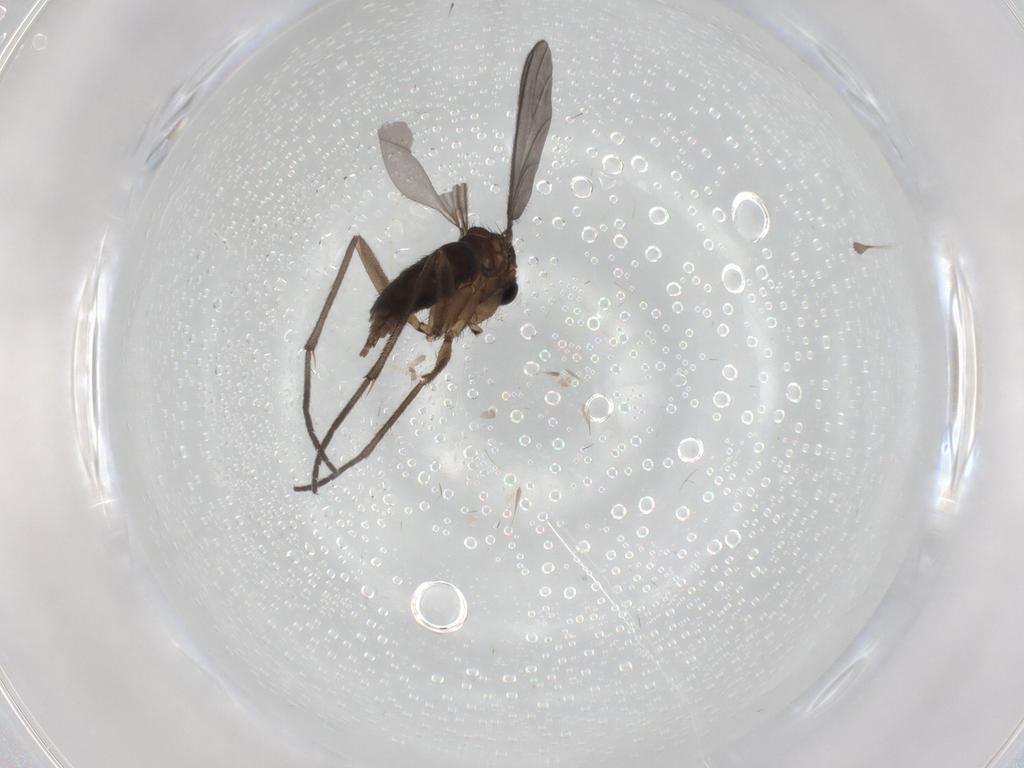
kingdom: Animalia
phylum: Arthropoda
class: Insecta
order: Diptera
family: Sciaridae
